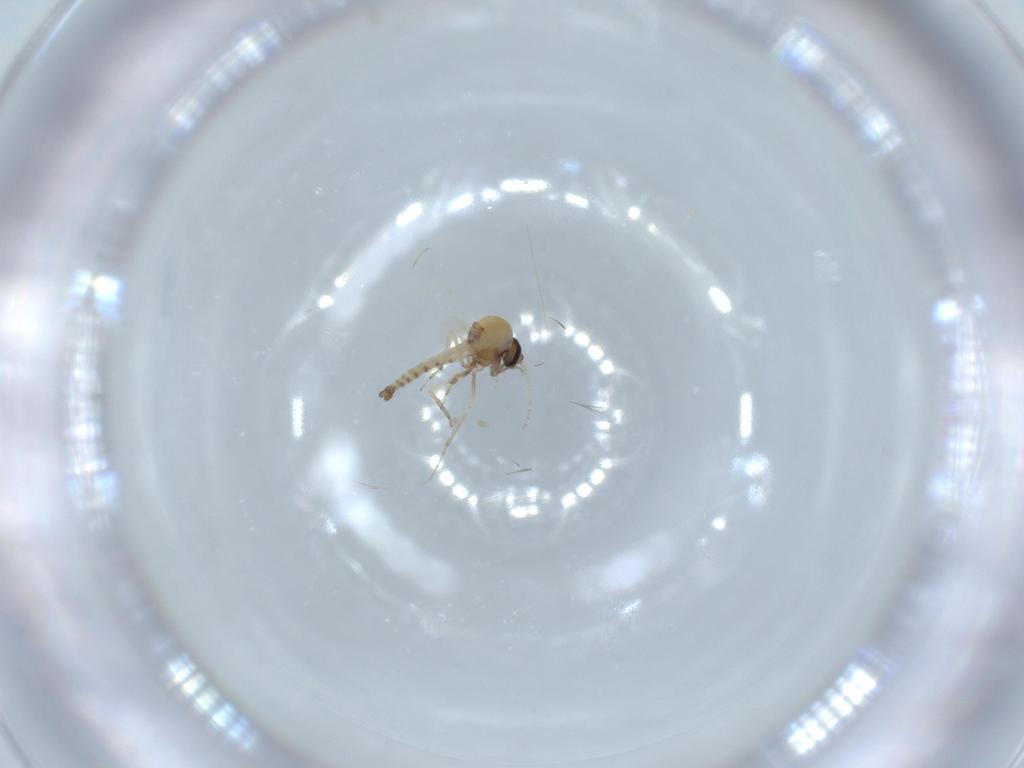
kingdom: Animalia
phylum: Arthropoda
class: Insecta
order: Diptera
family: Ceratopogonidae
